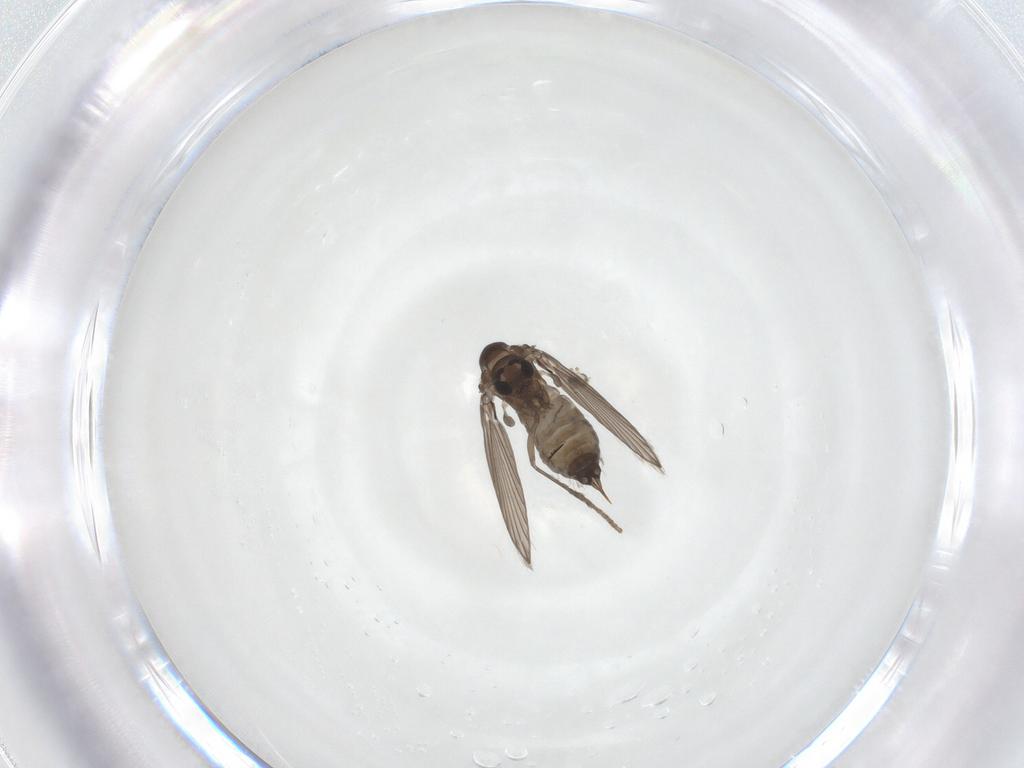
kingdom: Animalia
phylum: Arthropoda
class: Insecta
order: Diptera
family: Psychodidae
